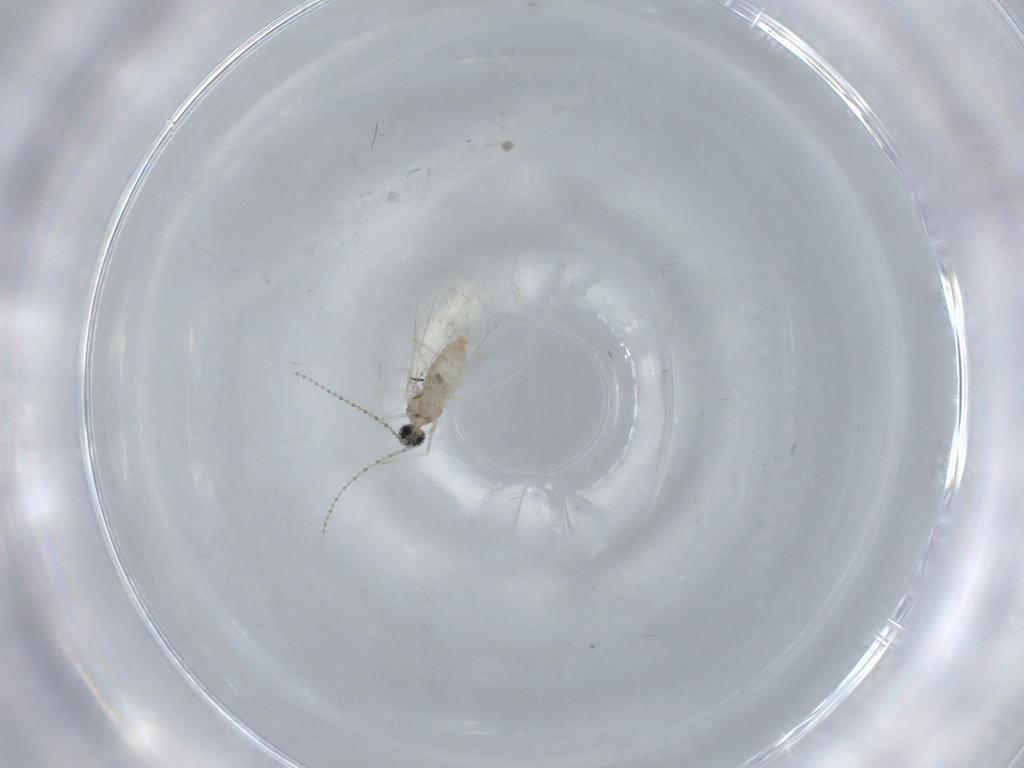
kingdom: Animalia
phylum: Arthropoda
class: Insecta
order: Diptera
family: Cecidomyiidae
